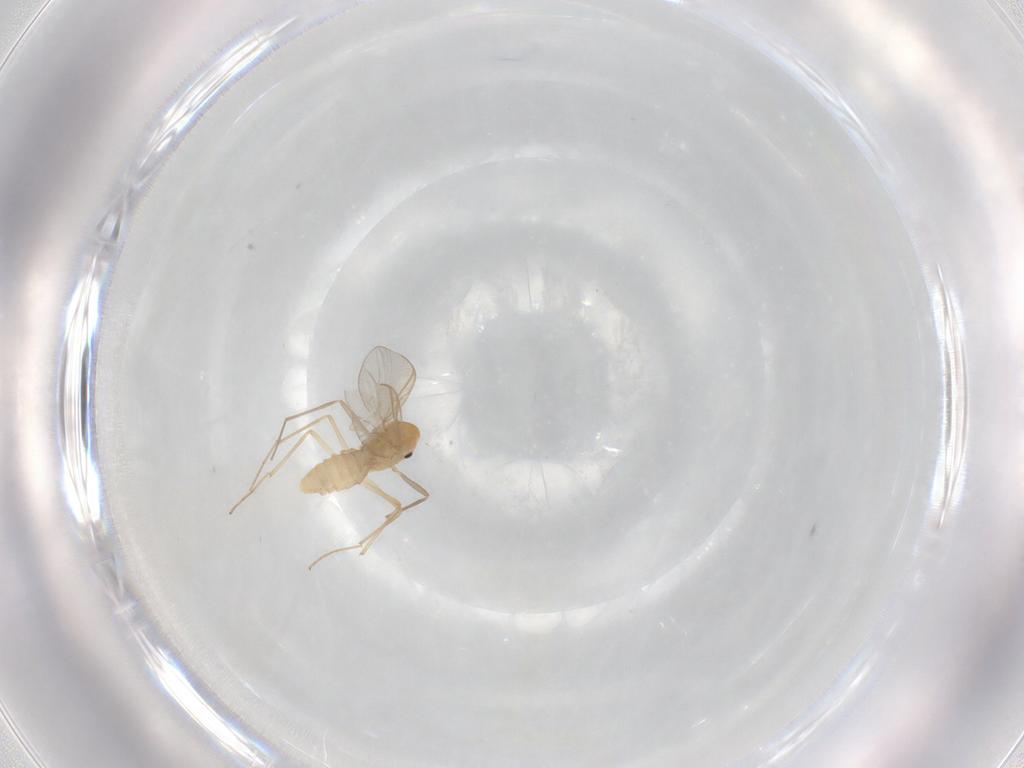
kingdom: Animalia
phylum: Arthropoda
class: Insecta
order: Diptera
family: Chironomidae
